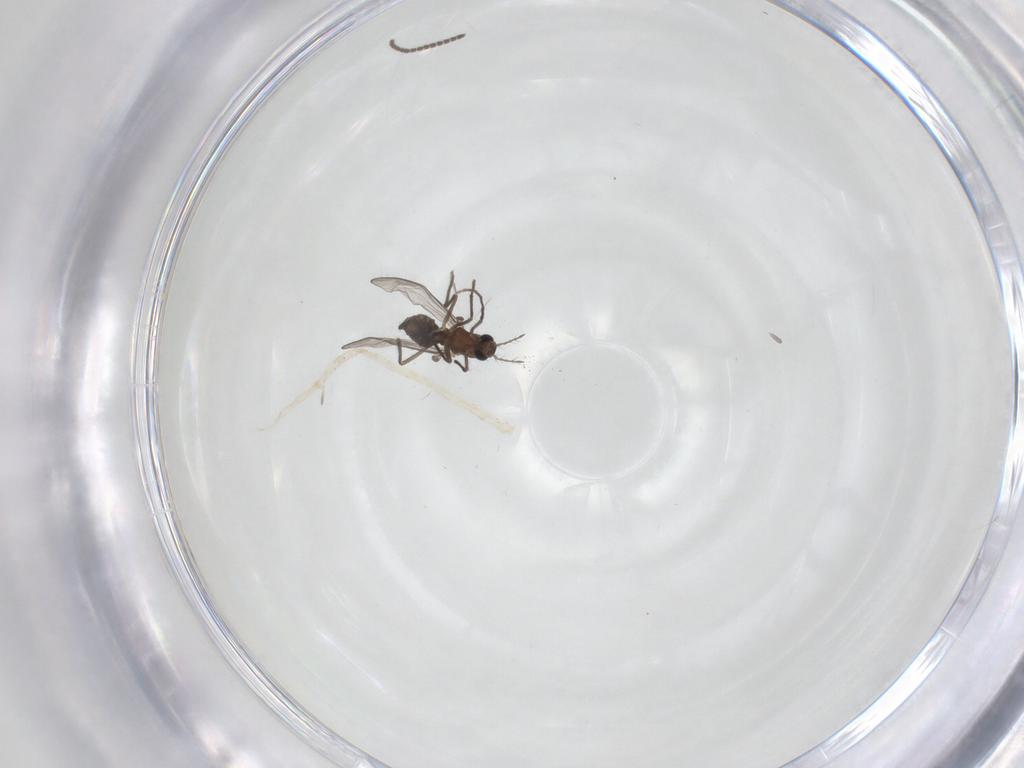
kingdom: Animalia
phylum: Arthropoda
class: Insecta
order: Diptera
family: Chironomidae
